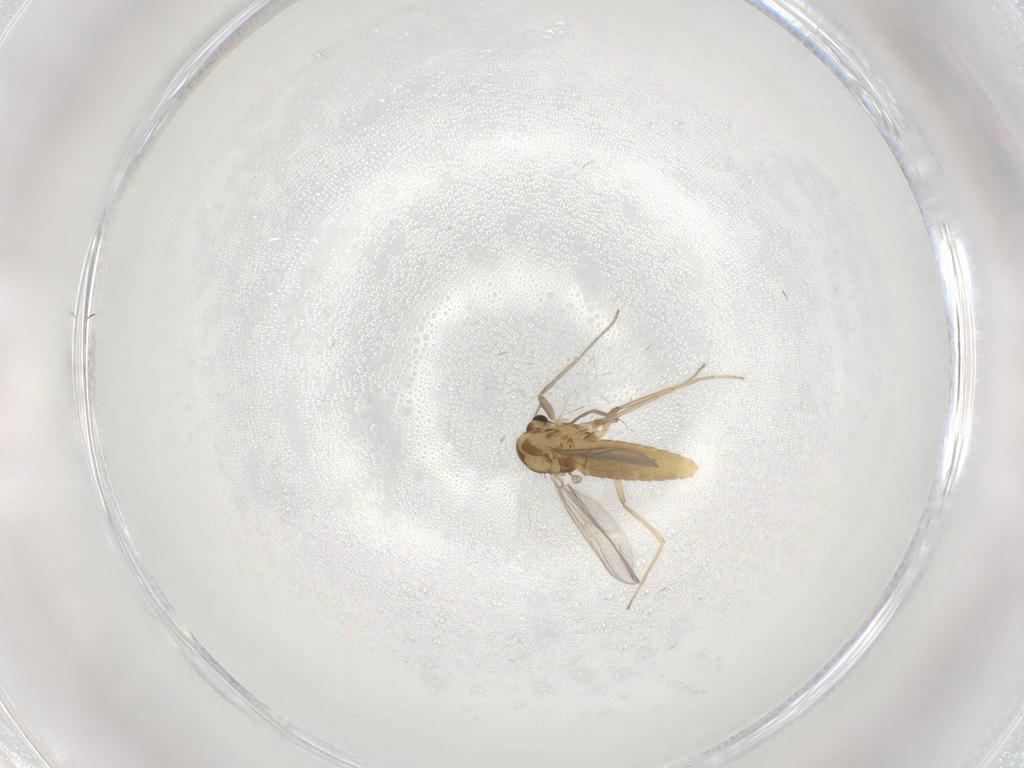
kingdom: Animalia
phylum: Arthropoda
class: Insecta
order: Diptera
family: Chironomidae
